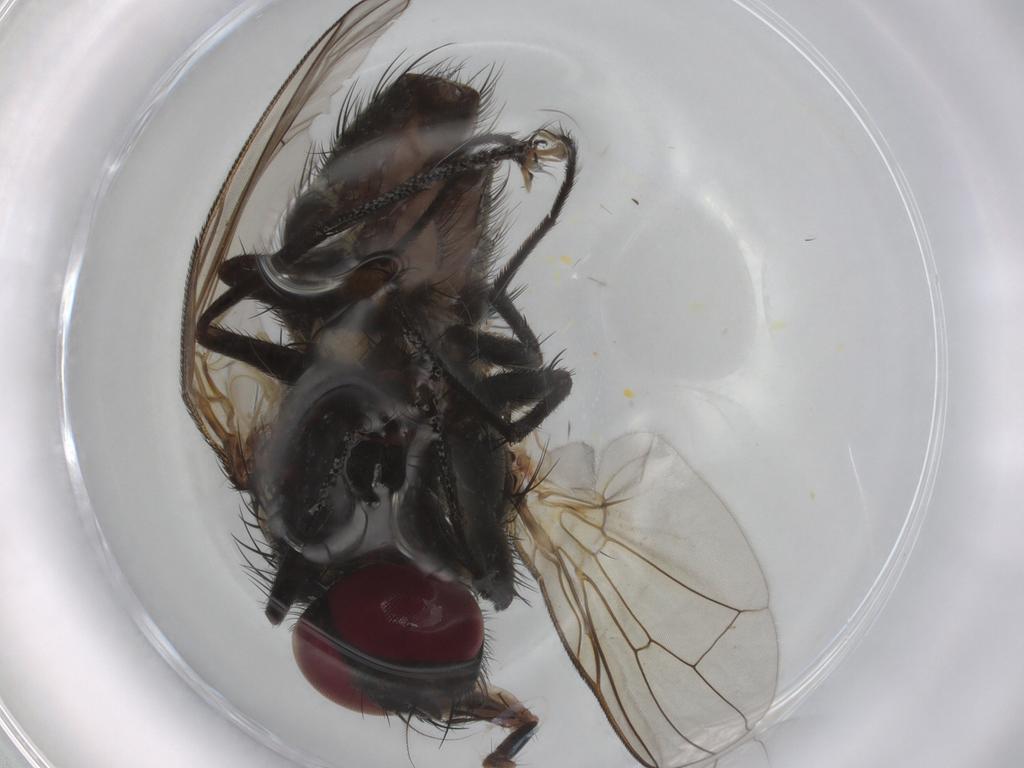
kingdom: Animalia
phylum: Arthropoda
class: Insecta
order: Diptera
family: Muscidae
